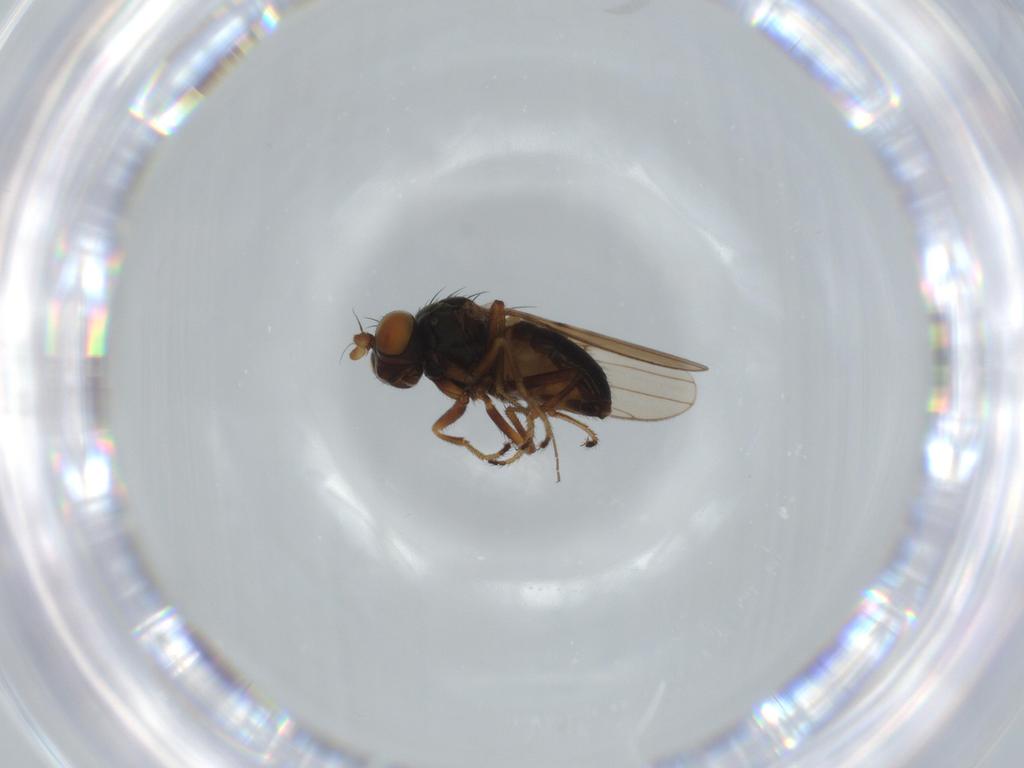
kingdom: Animalia
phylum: Arthropoda
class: Insecta
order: Diptera
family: Ephydridae
